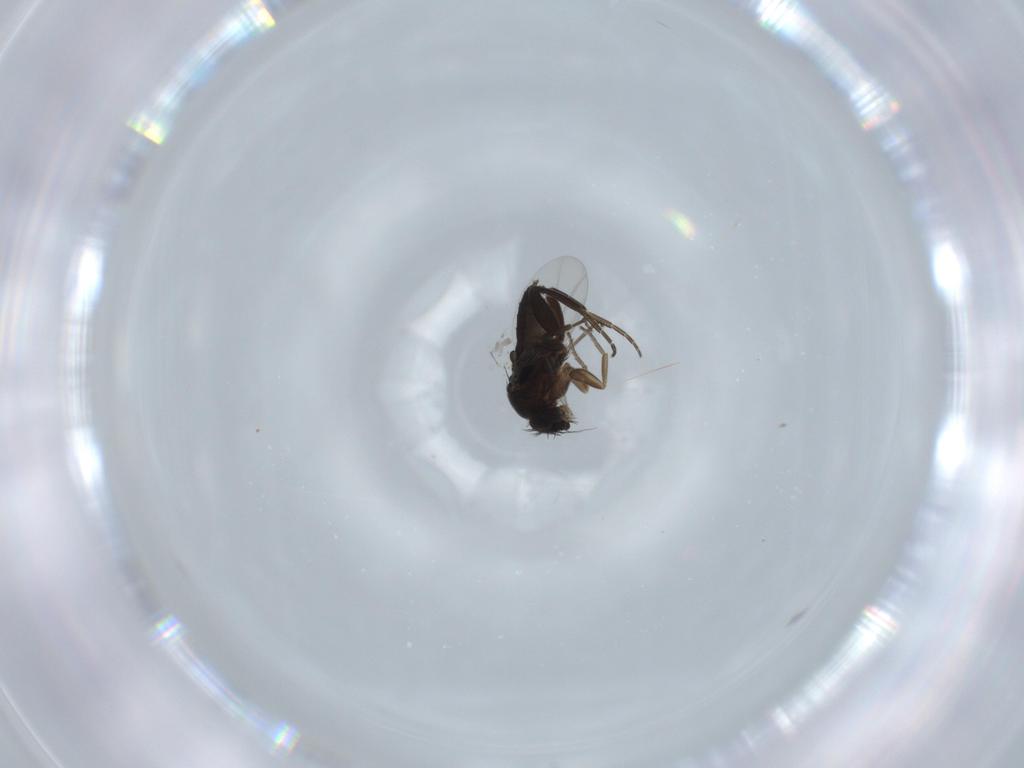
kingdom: Animalia
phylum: Arthropoda
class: Insecta
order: Diptera
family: Phoridae
